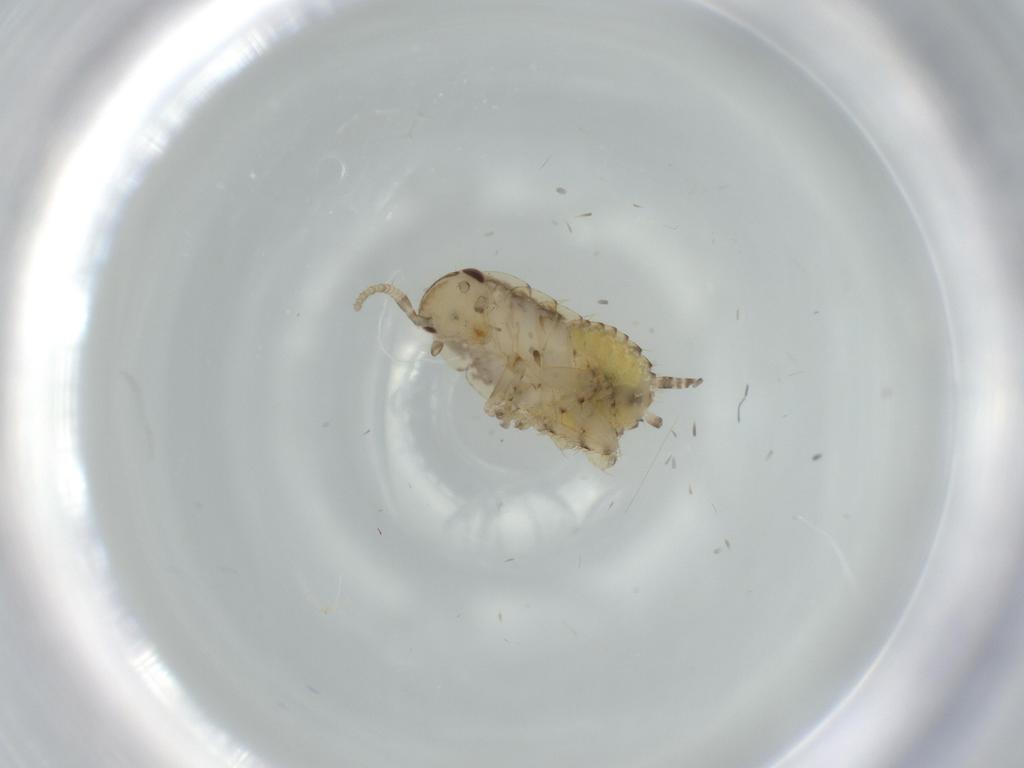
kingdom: Animalia
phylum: Arthropoda
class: Insecta
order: Blattodea
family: Ectobiidae
